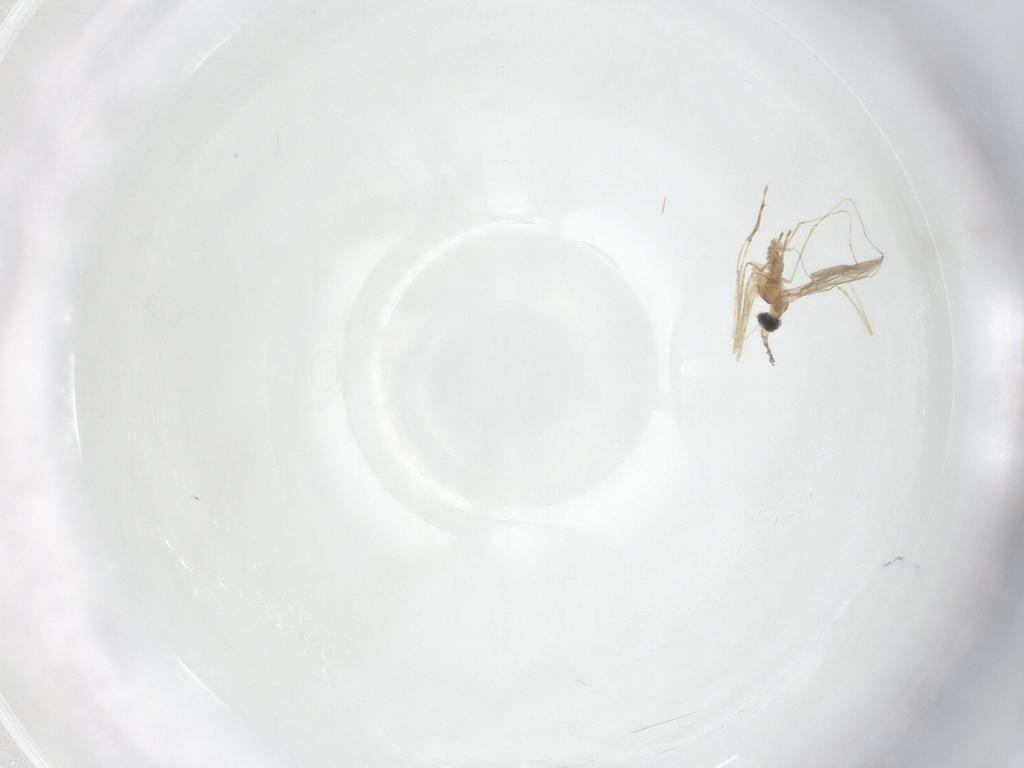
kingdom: Animalia
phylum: Arthropoda
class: Insecta
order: Diptera
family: Cecidomyiidae
